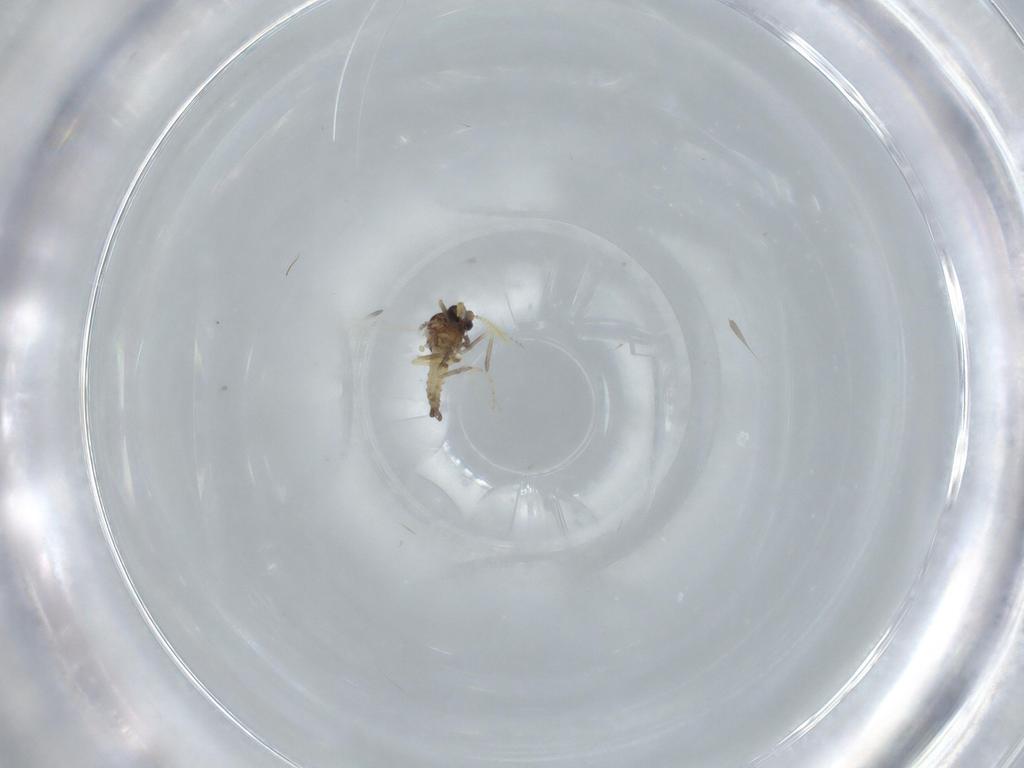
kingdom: Animalia
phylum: Arthropoda
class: Insecta
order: Diptera
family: Ceratopogonidae
